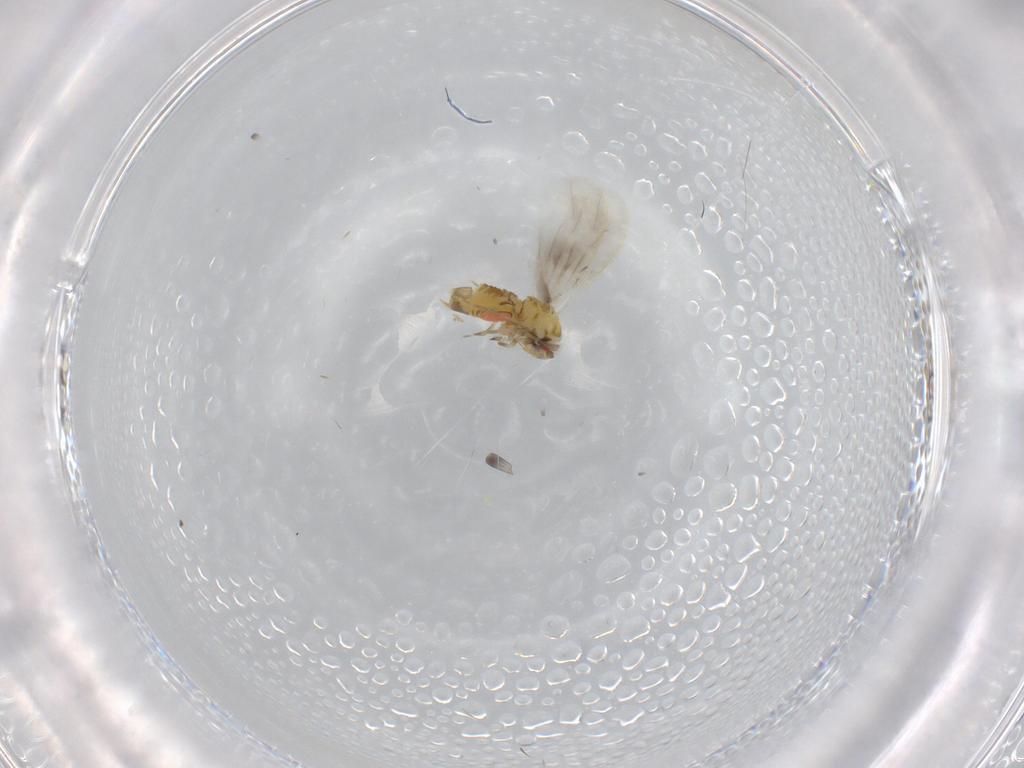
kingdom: Animalia
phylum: Arthropoda
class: Insecta
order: Hemiptera
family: Aleyrodidae
